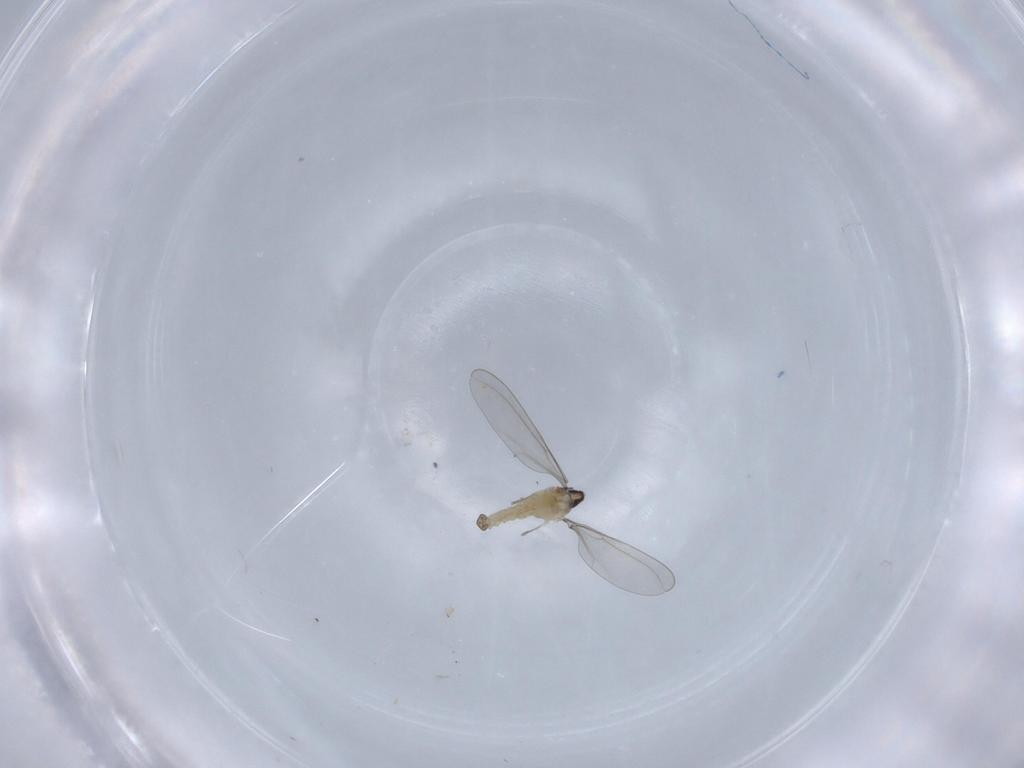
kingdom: Animalia
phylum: Arthropoda
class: Insecta
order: Diptera
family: Cecidomyiidae
